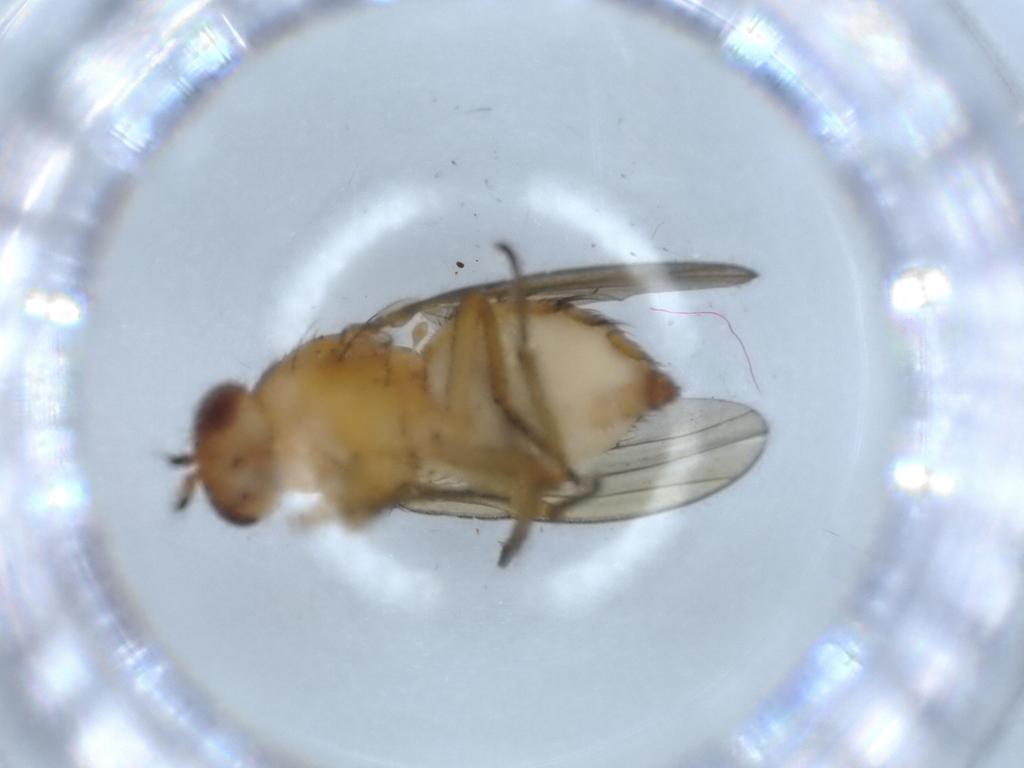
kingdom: Animalia
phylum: Arthropoda
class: Insecta
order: Diptera
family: Lauxaniidae
